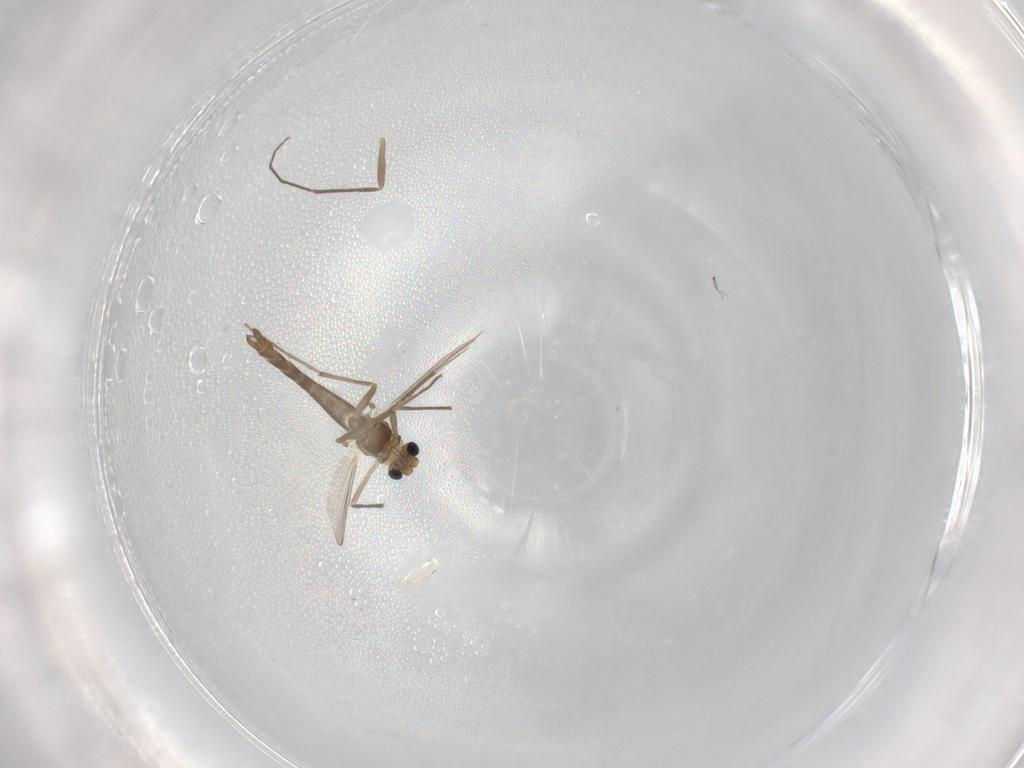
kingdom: Animalia
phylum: Arthropoda
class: Insecta
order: Diptera
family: Chironomidae
